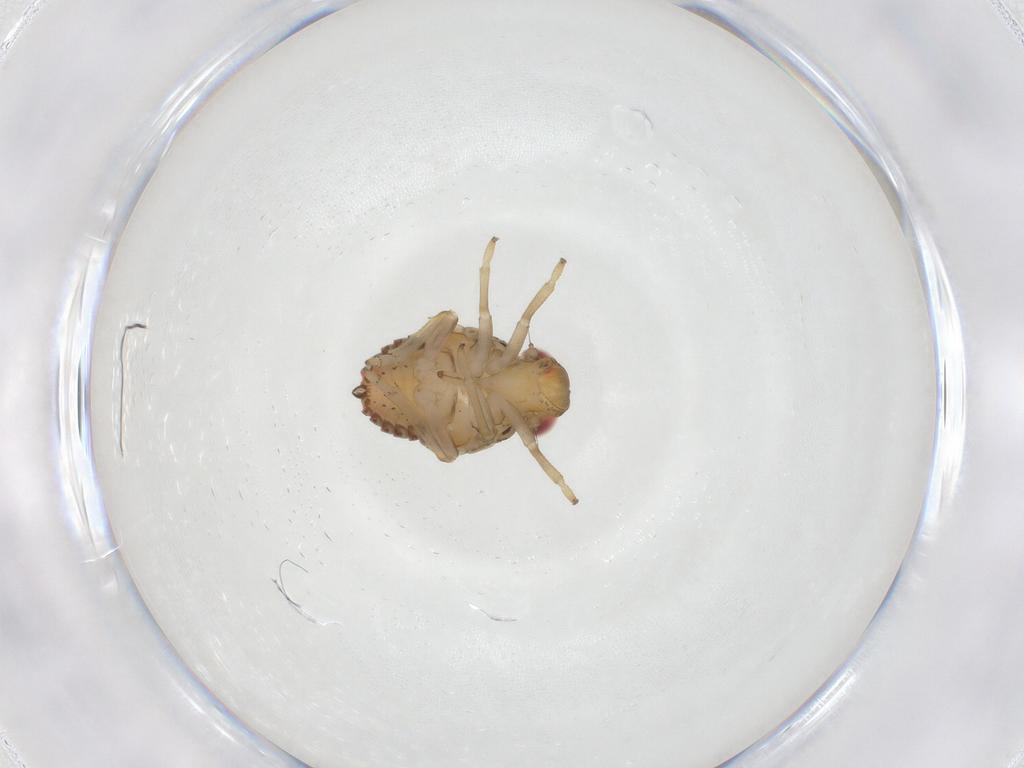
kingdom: Animalia
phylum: Arthropoda
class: Insecta
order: Hemiptera
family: Issidae
